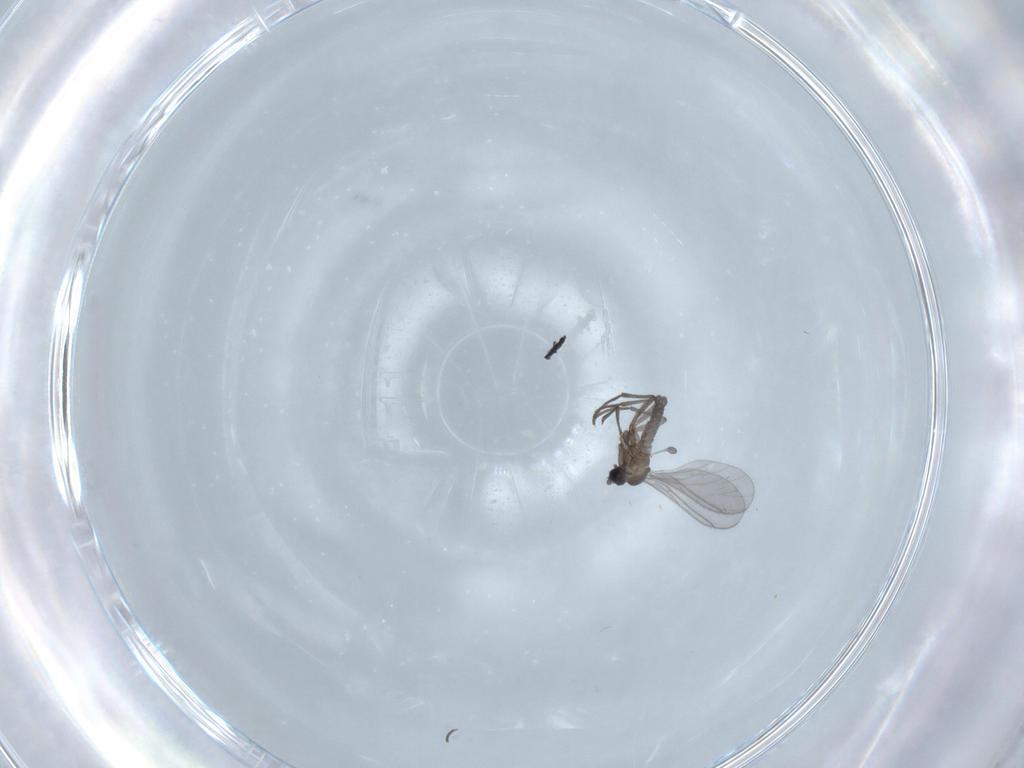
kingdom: Animalia
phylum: Arthropoda
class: Insecta
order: Diptera
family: Sciaridae
